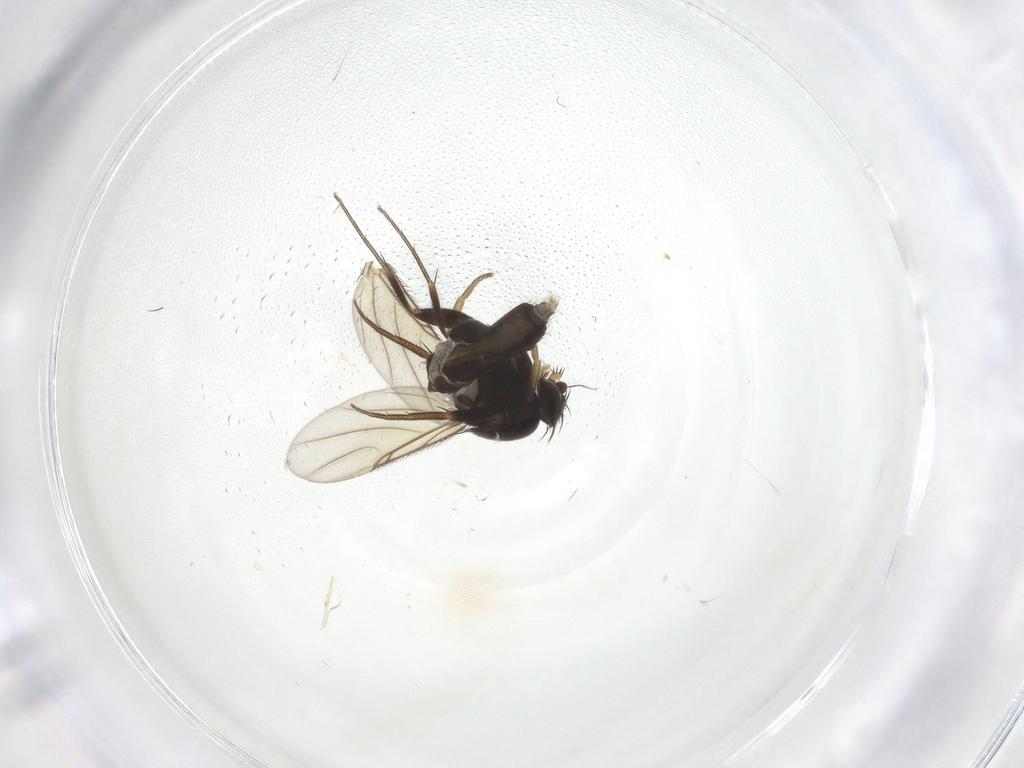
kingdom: Animalia
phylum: Arthropoda
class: Insecta
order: Diptera
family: Phoridae
